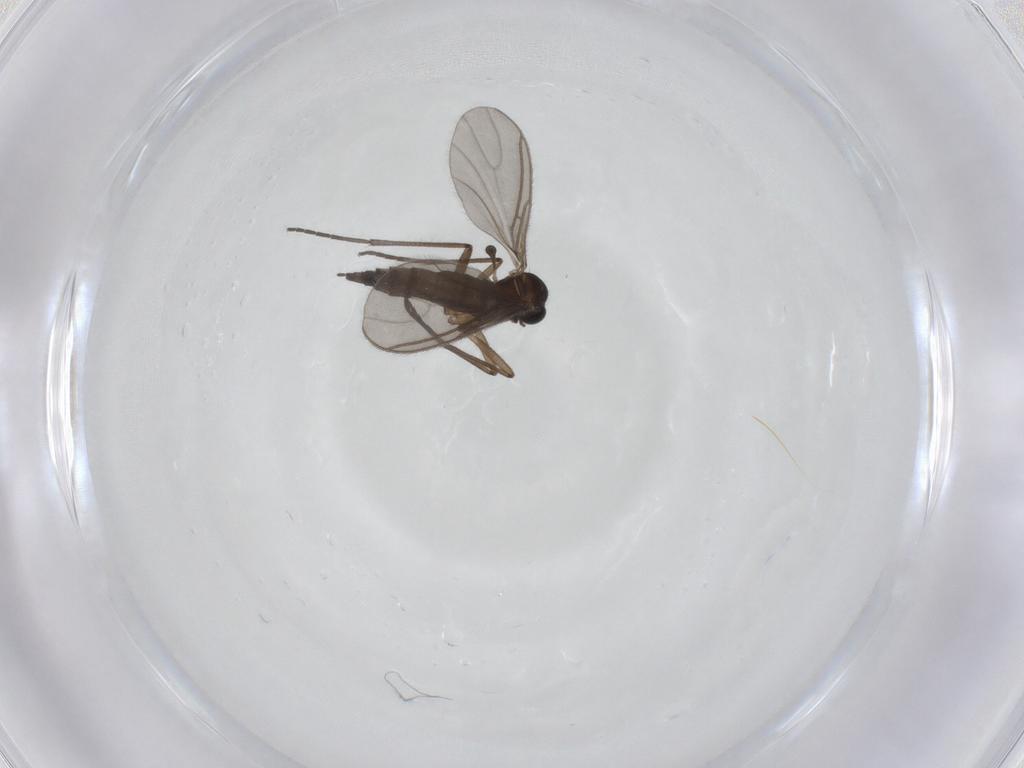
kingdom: Animalia
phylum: Arthropoda
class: Insecta
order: Diptera
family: Sciaridae
